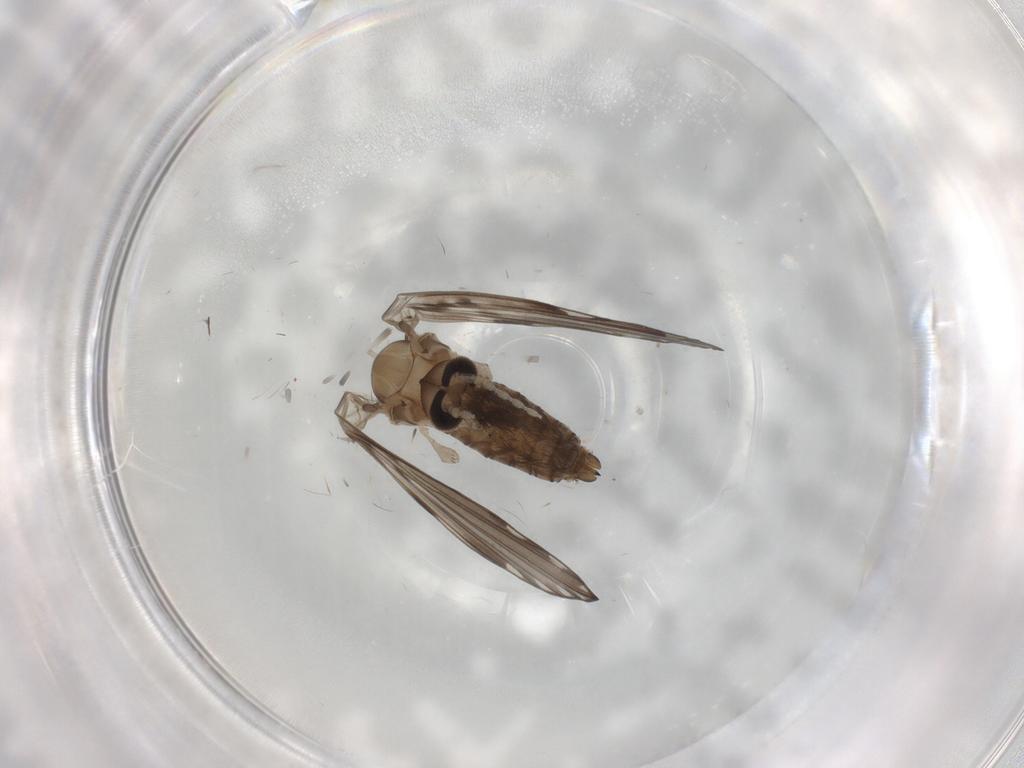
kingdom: Animalia
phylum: Arthropoda
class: Insecta
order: Diptera
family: Psychodidae
